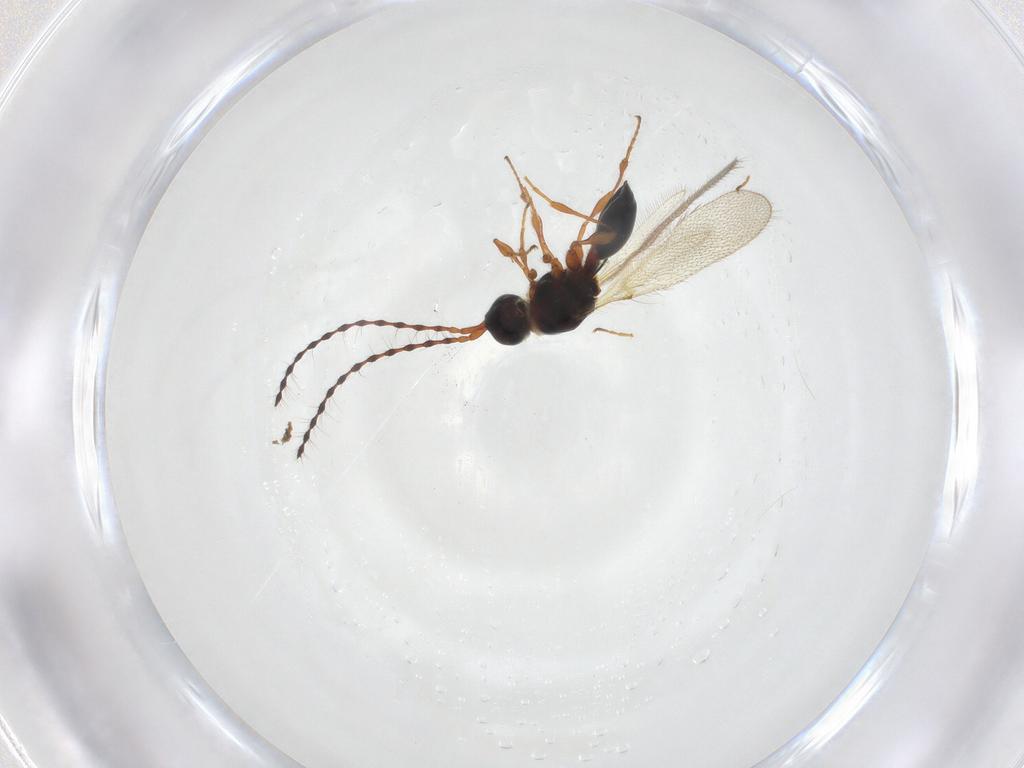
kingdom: Animalia
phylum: Arthropoda
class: Insecta
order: Hymenoptera
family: Diapriidae
